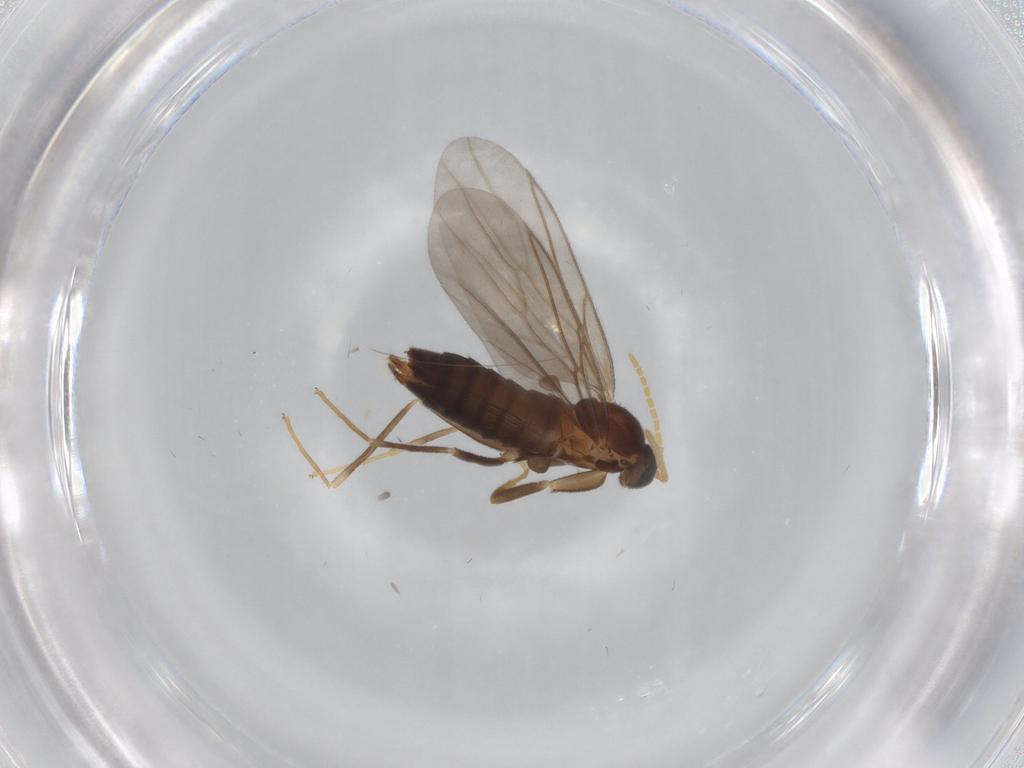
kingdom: Animalia
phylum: Arthropoda
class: Insecta
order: Diptera
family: Scatopsidae
